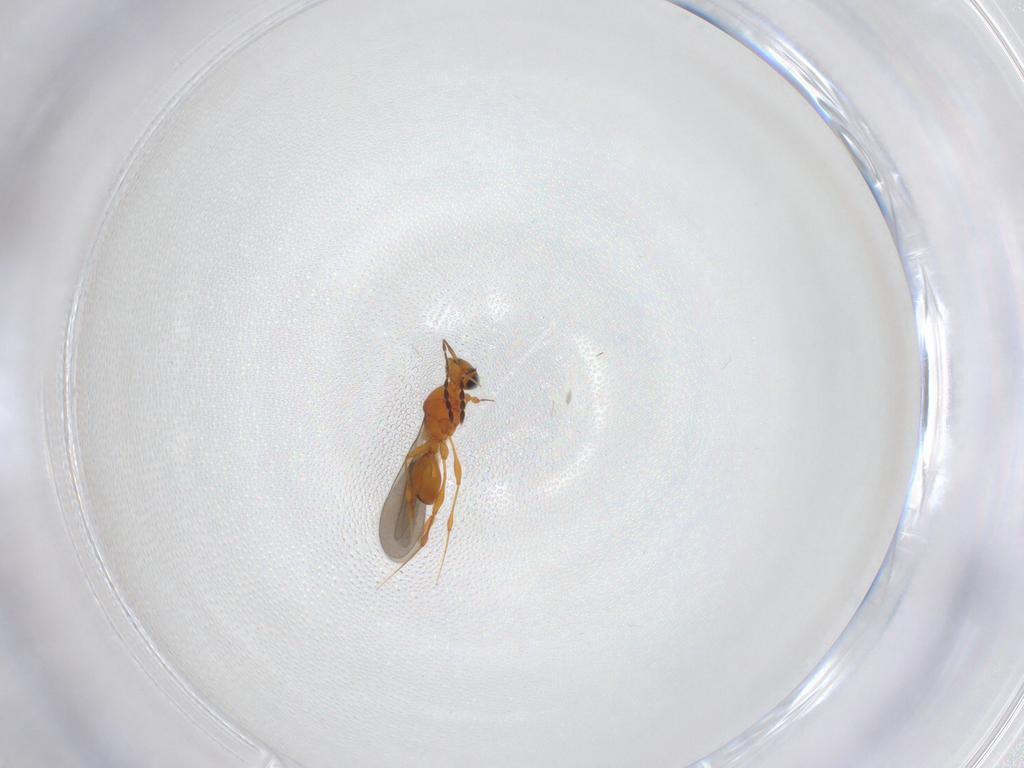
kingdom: Animalia
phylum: Arthropoda
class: Insecta
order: Hymenoptera
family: Platygastridae
